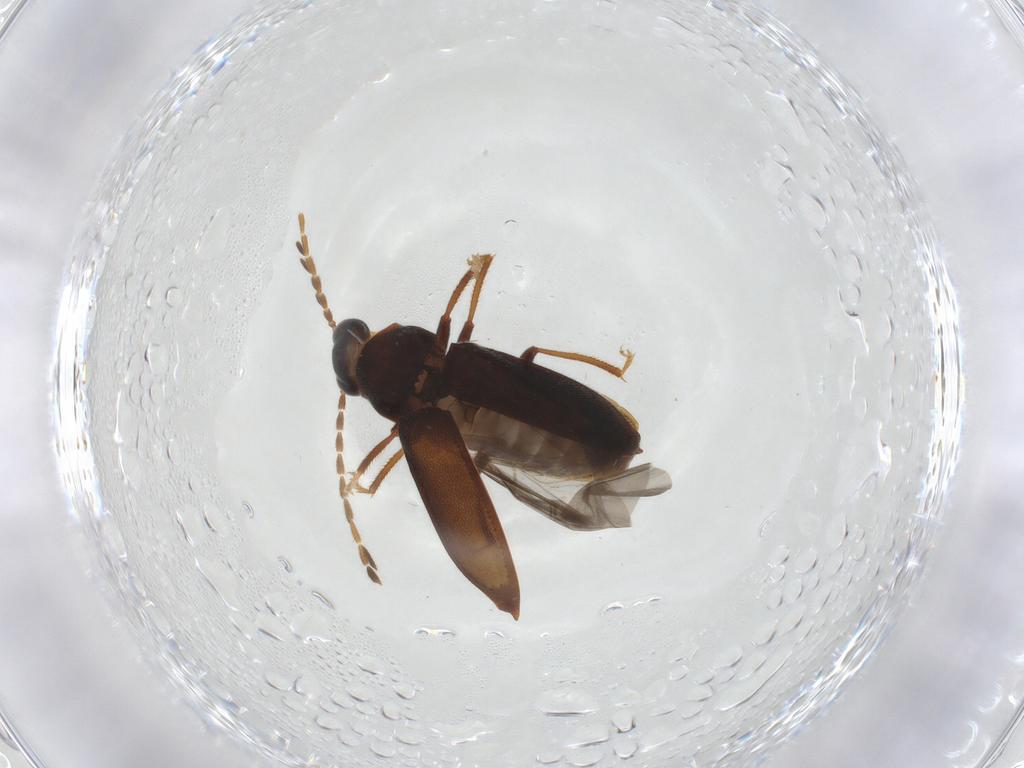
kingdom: Animalia
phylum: Arthropoda
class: Insecta
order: Coleoptera
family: Ptilodactylidae
